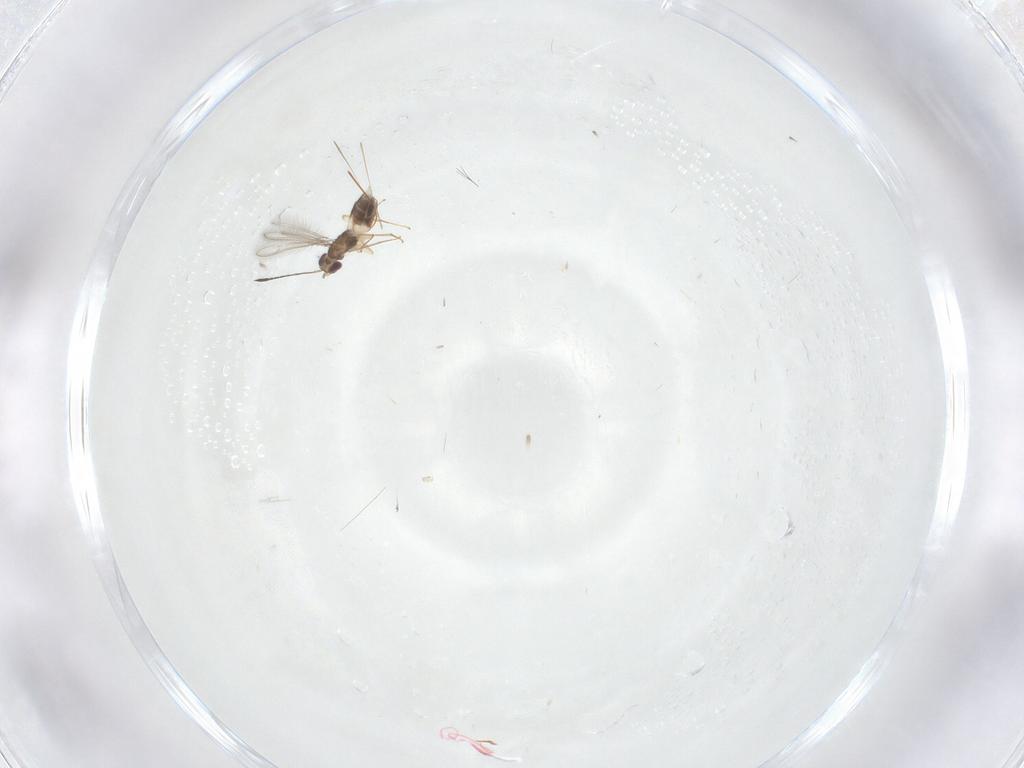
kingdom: Animalia
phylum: Arthropoda
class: Insecta
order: Hymenoptera
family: Mymaridae
